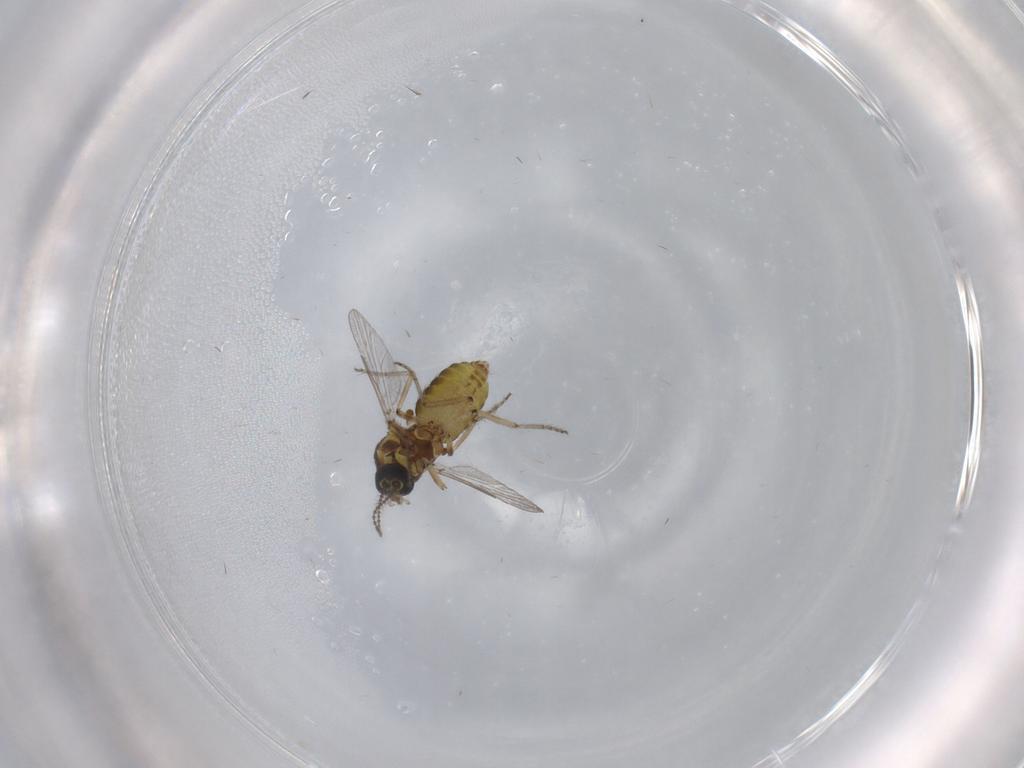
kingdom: Animalia
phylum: Arthropoda
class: Insecta
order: Diptera
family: Ceratopogonidae
